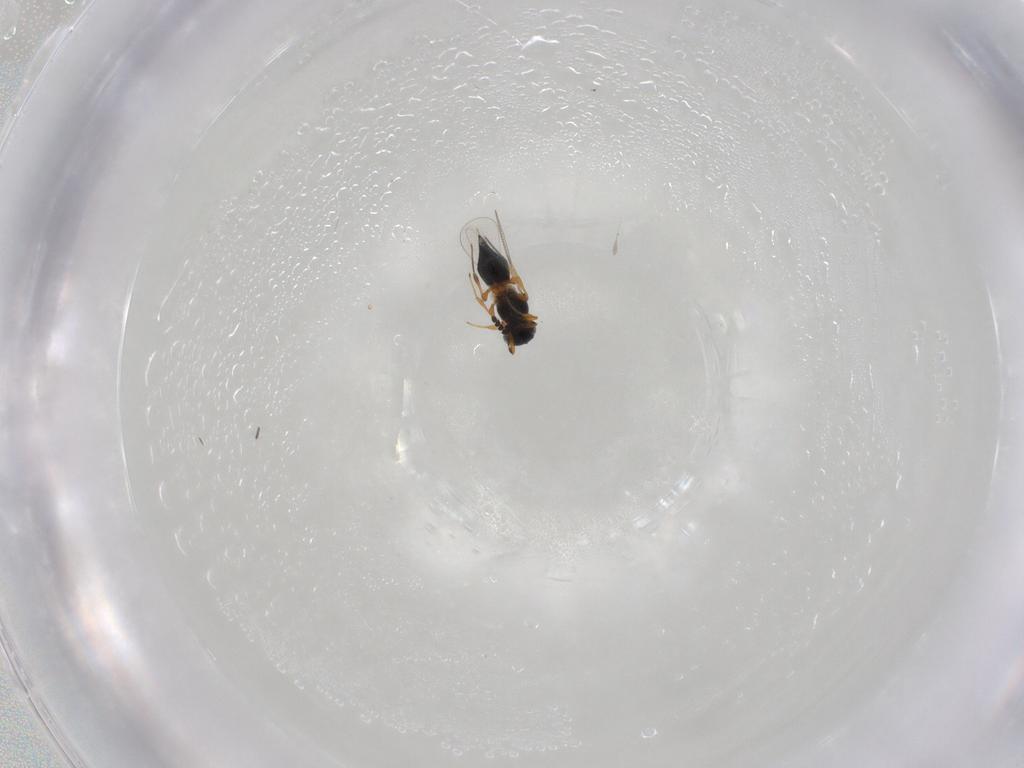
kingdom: Animalia
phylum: Arthropoda
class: Insecta
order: Hymenoptera
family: Platygastridae
